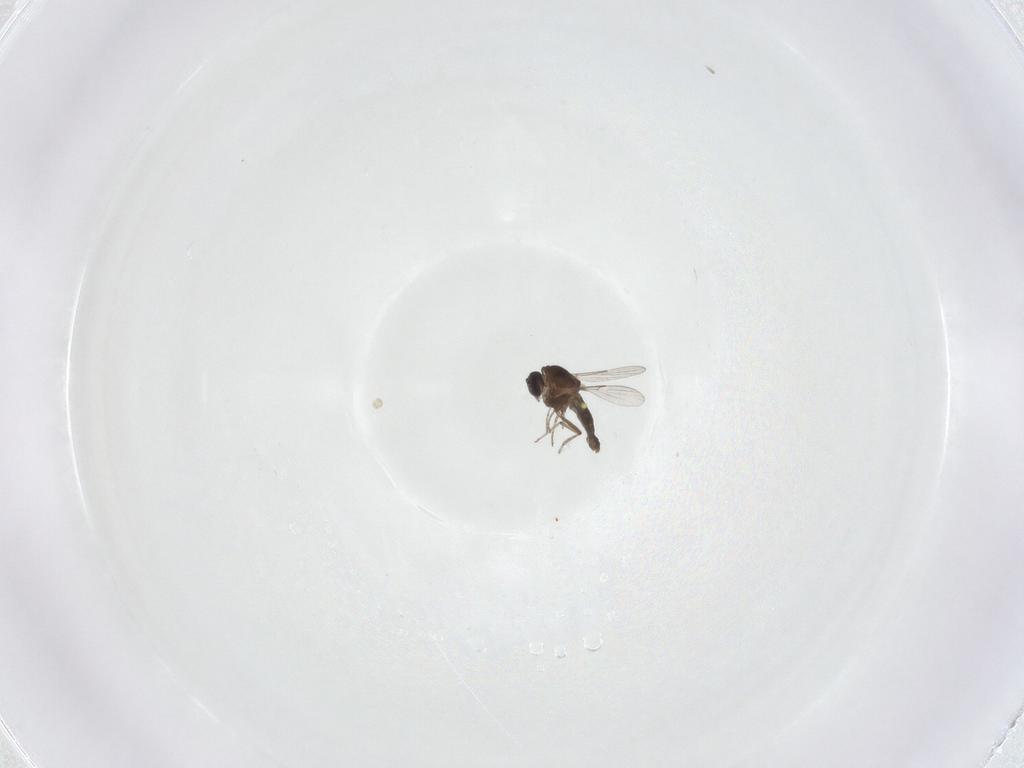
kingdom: Animalia
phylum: Arthropoda
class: Insecta
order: Diptera
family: Ceratopogonidae
